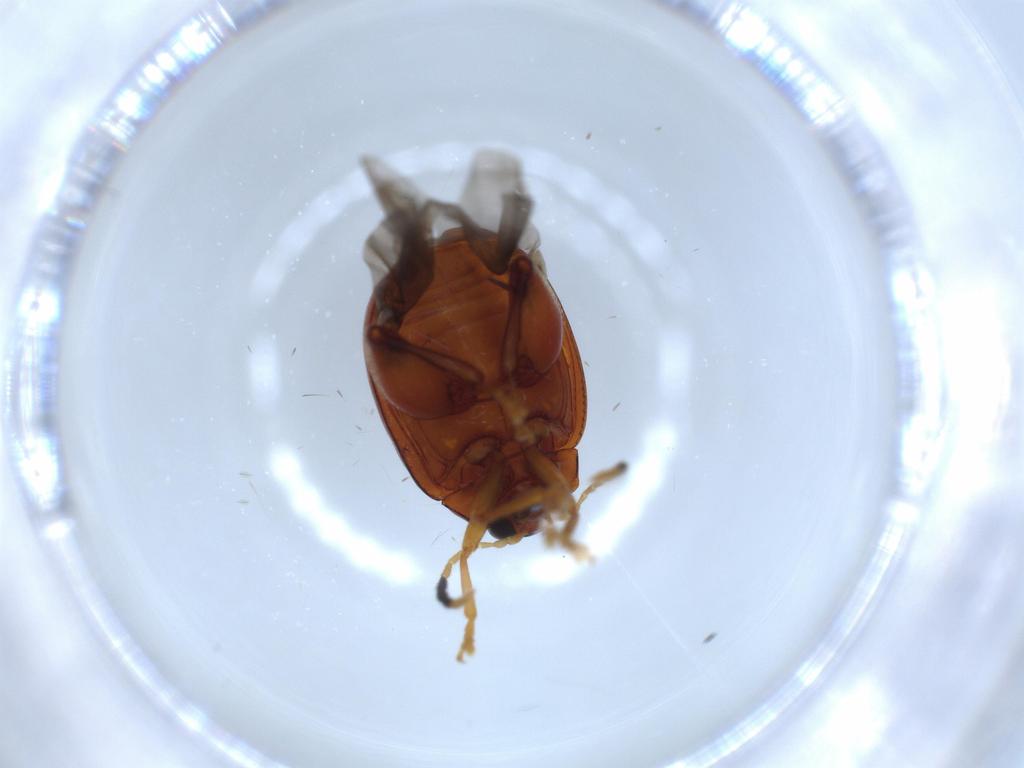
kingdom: Animalia
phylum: Arthropoda
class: Insecta
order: Coleoptera
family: Chrysomelidae
